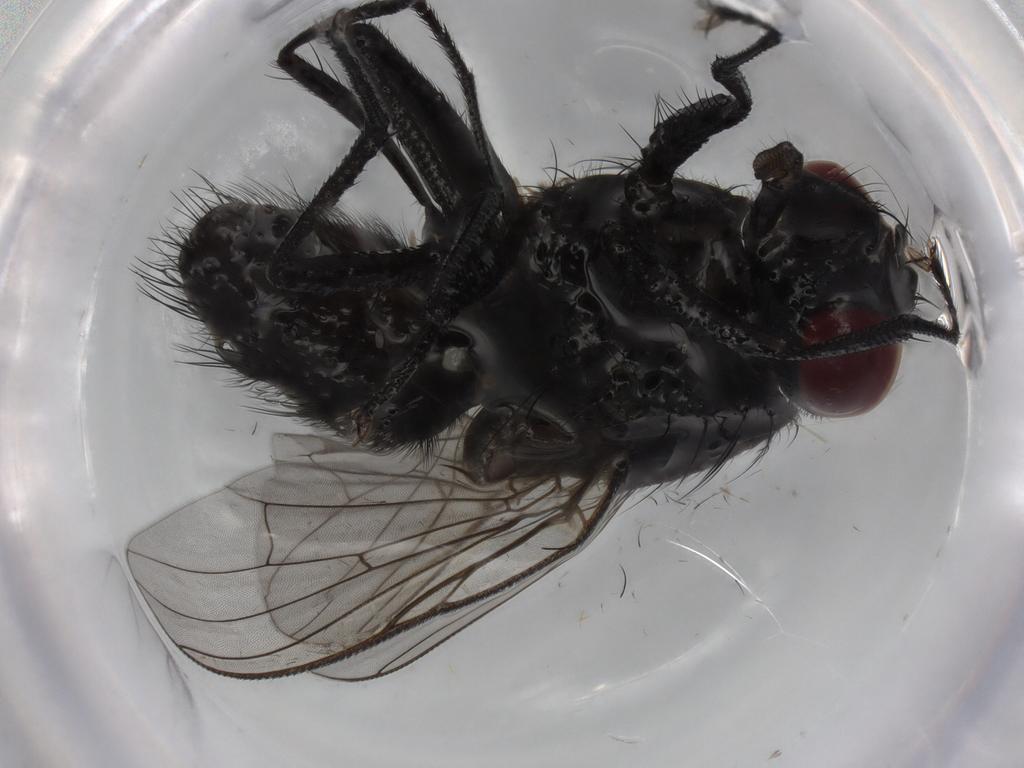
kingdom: Animalia
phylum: Arthropoda
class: Insecta
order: Diptera
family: Muscidae
